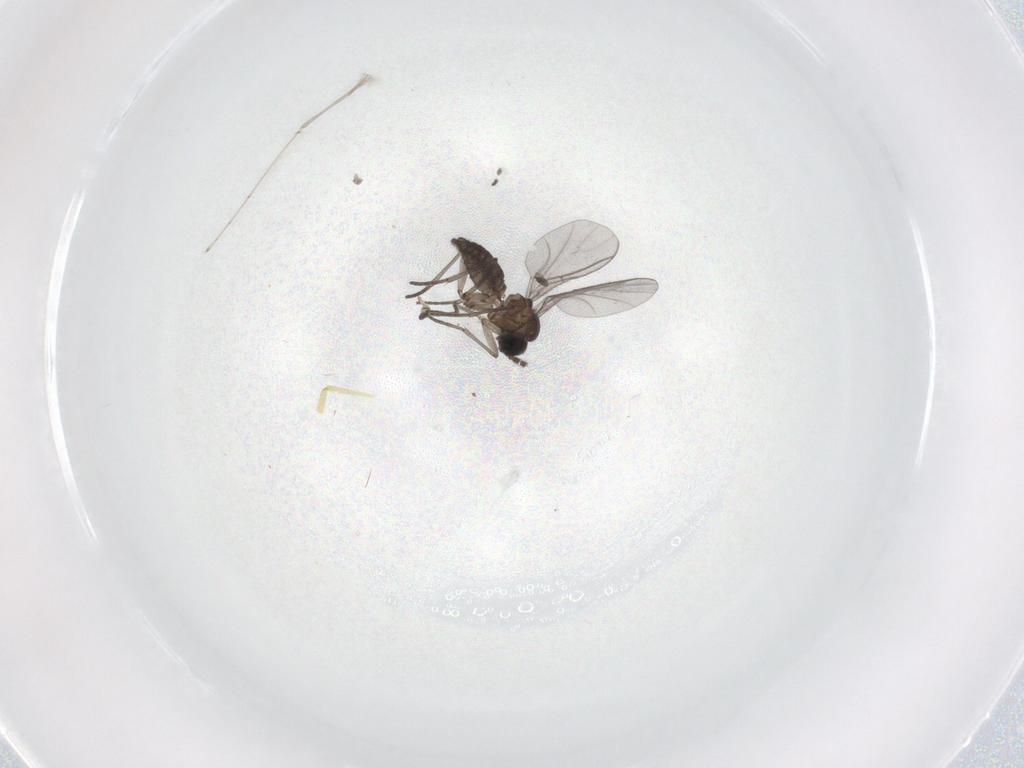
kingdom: Animalia
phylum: Arthropoda
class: Insecta
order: Diptera
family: Cecidomyiidae
